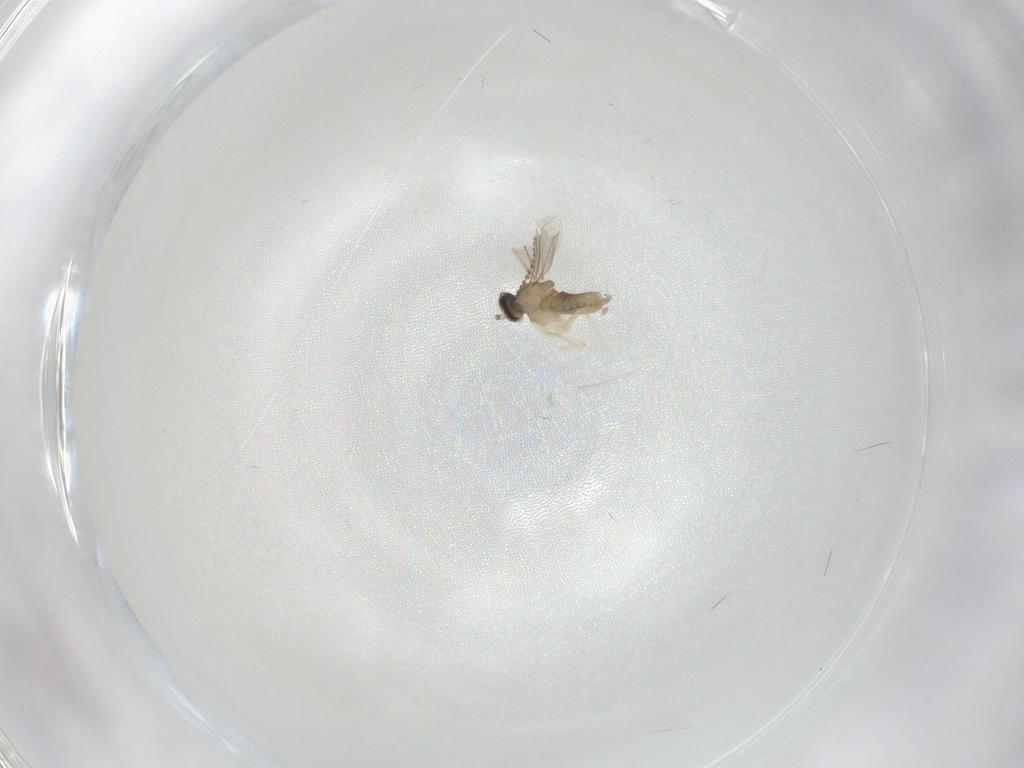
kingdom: Animalia
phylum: Arthropoda
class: Insecta
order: Diptera
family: Cecidomyiidae
